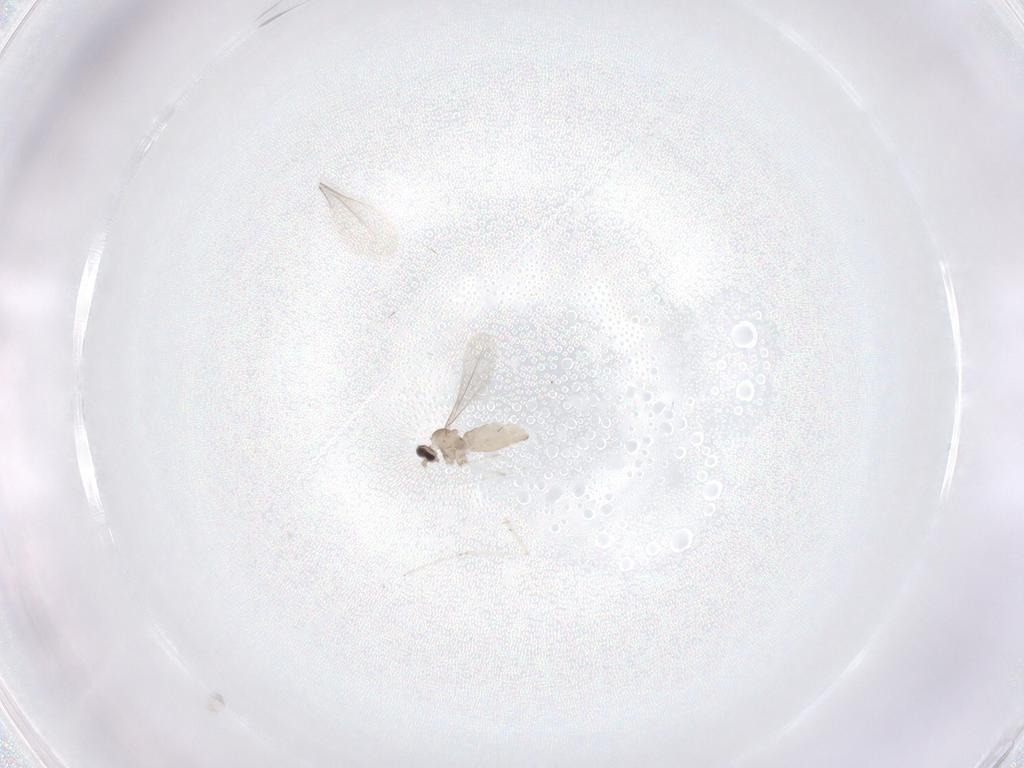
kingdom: Animalia
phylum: Arthropoda
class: Insecta
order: Diptera
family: Cecidomyiidae
